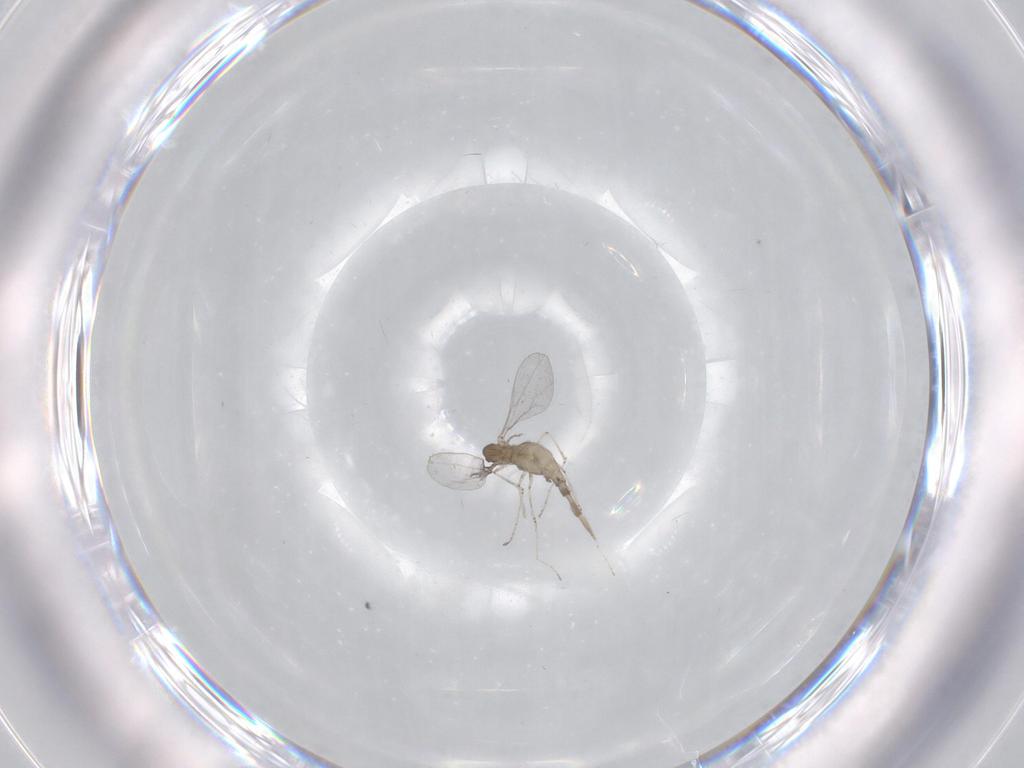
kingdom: Animalia
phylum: Arthropoda
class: Insecta
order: Diptera
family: Cecidomyiidae
